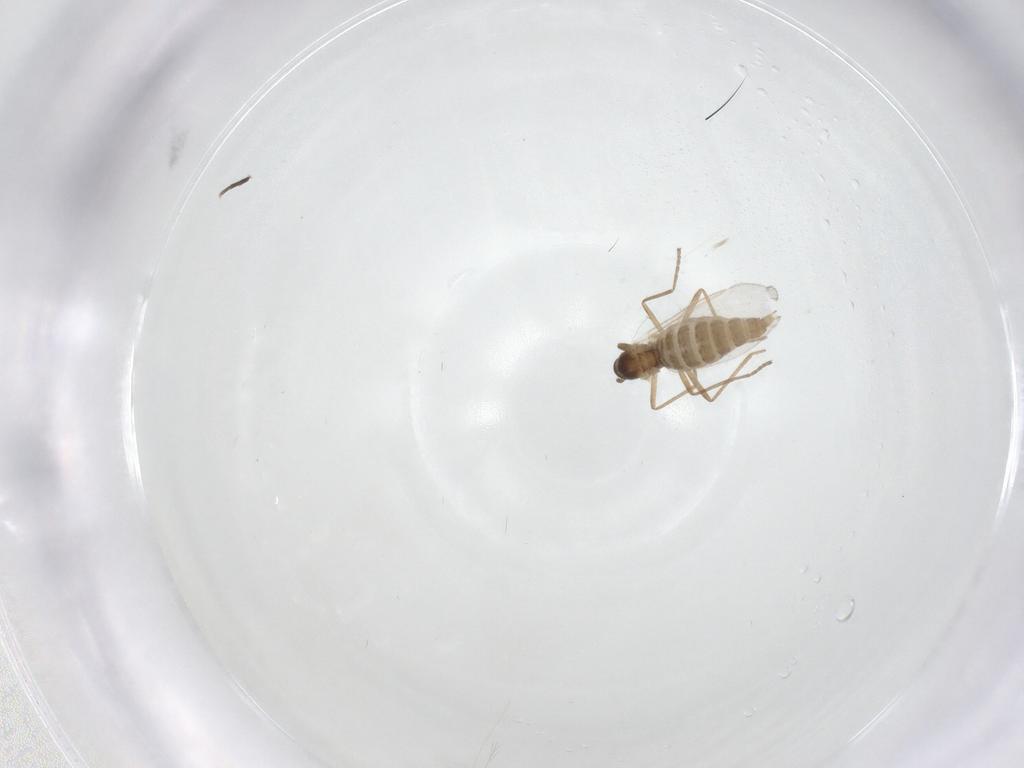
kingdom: Animalia
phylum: Arthropoda
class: Insecta
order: Diptera
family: Cecidomyiidae
